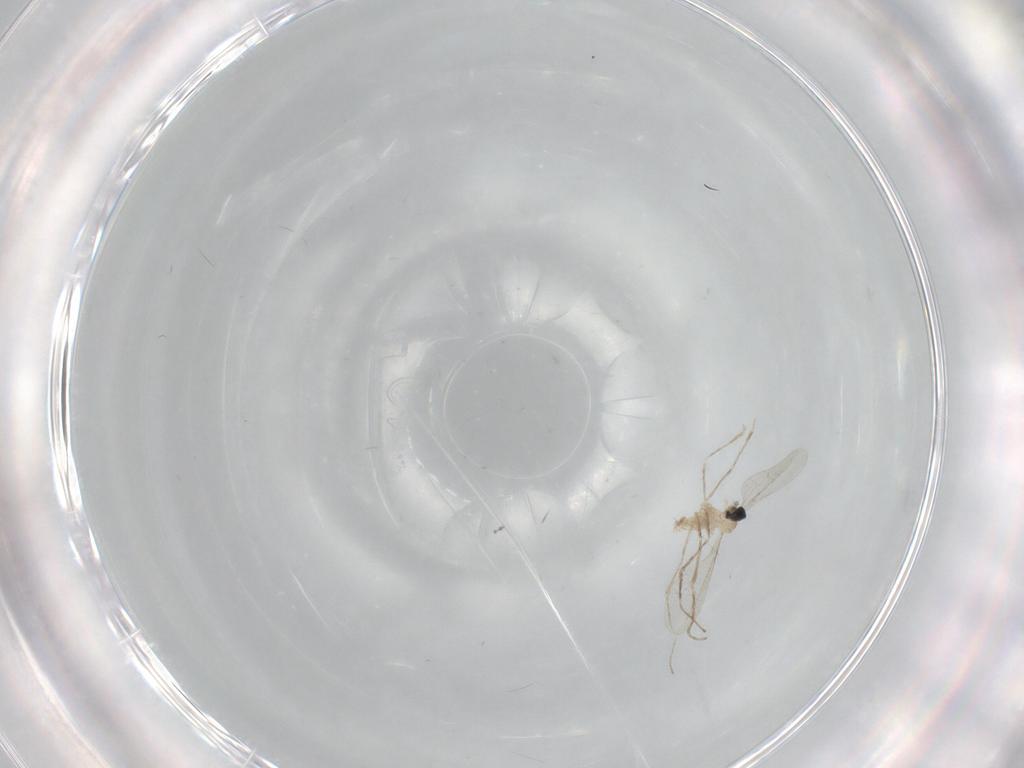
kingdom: Animalia
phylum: Arthropoda
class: Insecta
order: Diptera
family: Cecidomyiidae
